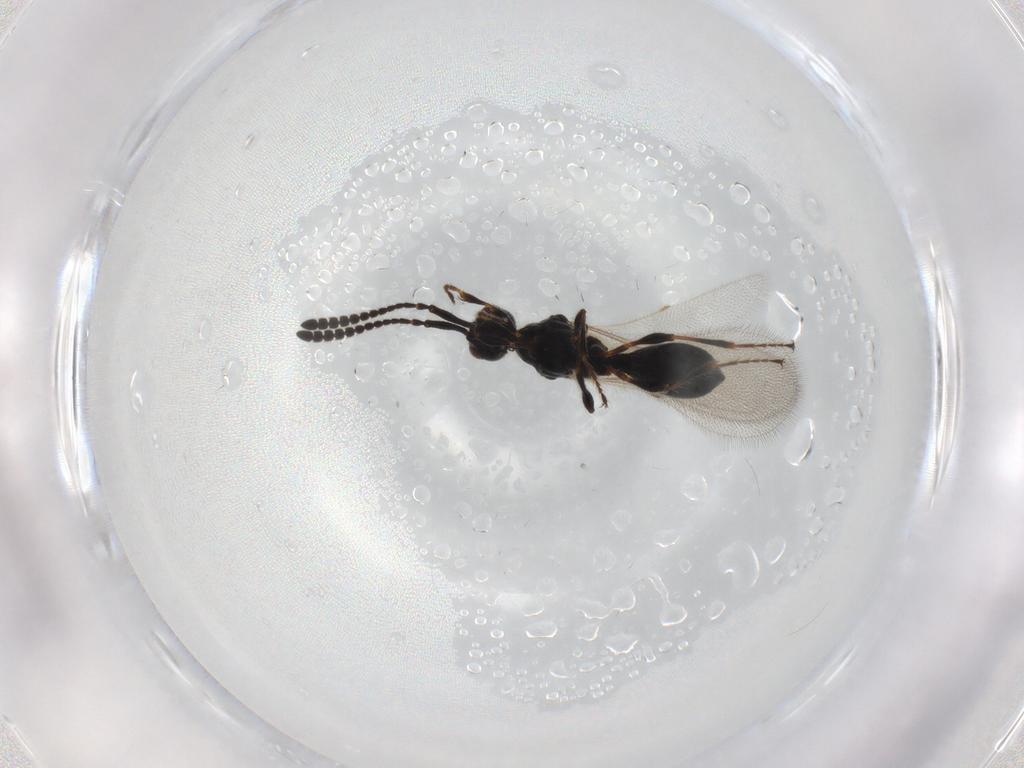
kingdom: Animalia
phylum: Arthropoda
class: Insecta
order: Hymenoptera
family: Diapriidae
